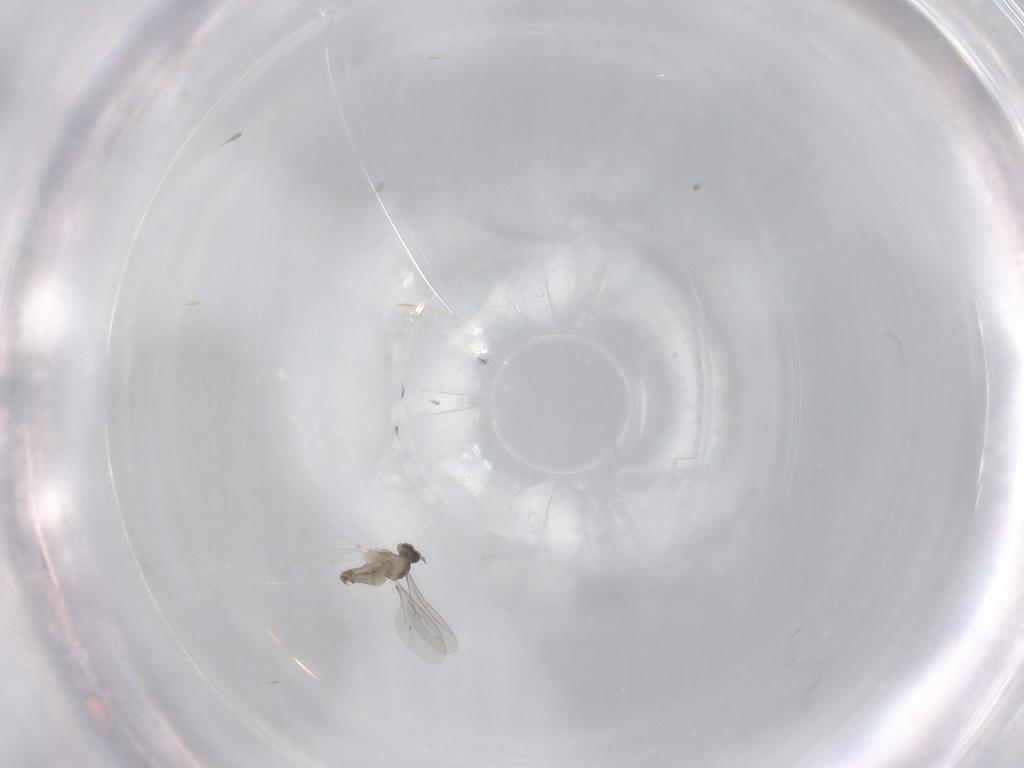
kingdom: Animalia
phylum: Arthropoda
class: Insecta
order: Diptera
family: Cecidomyiidae
